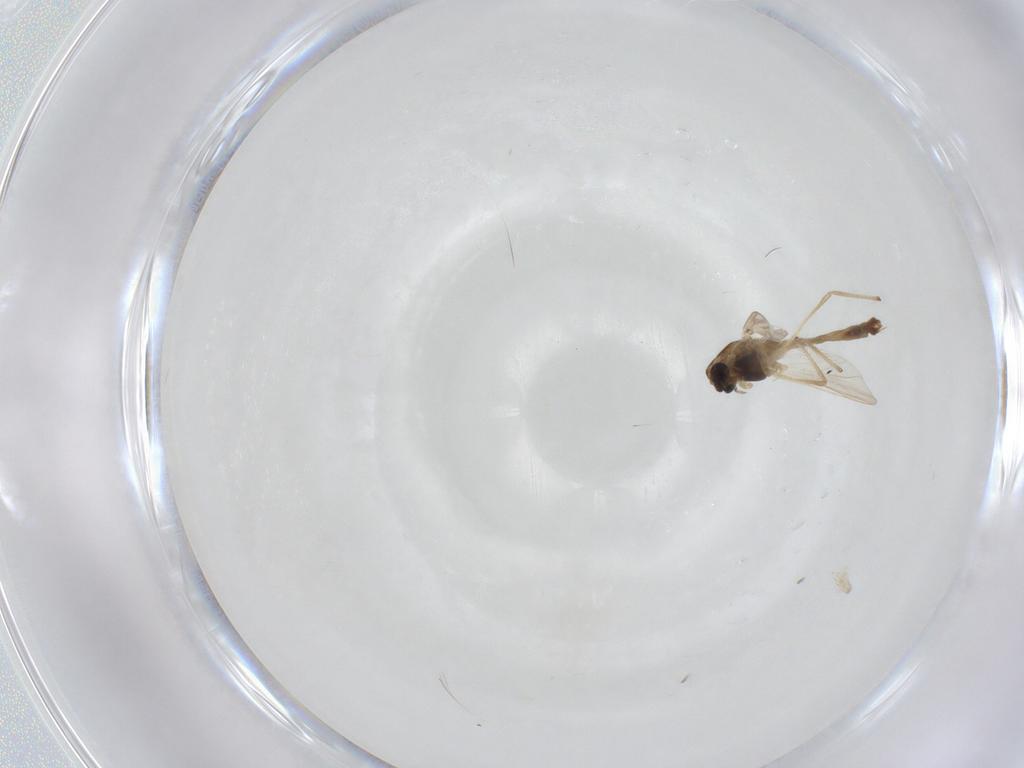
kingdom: Animalia
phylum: Arthropoda
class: Insecta
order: Diptera
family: Chironomidae
